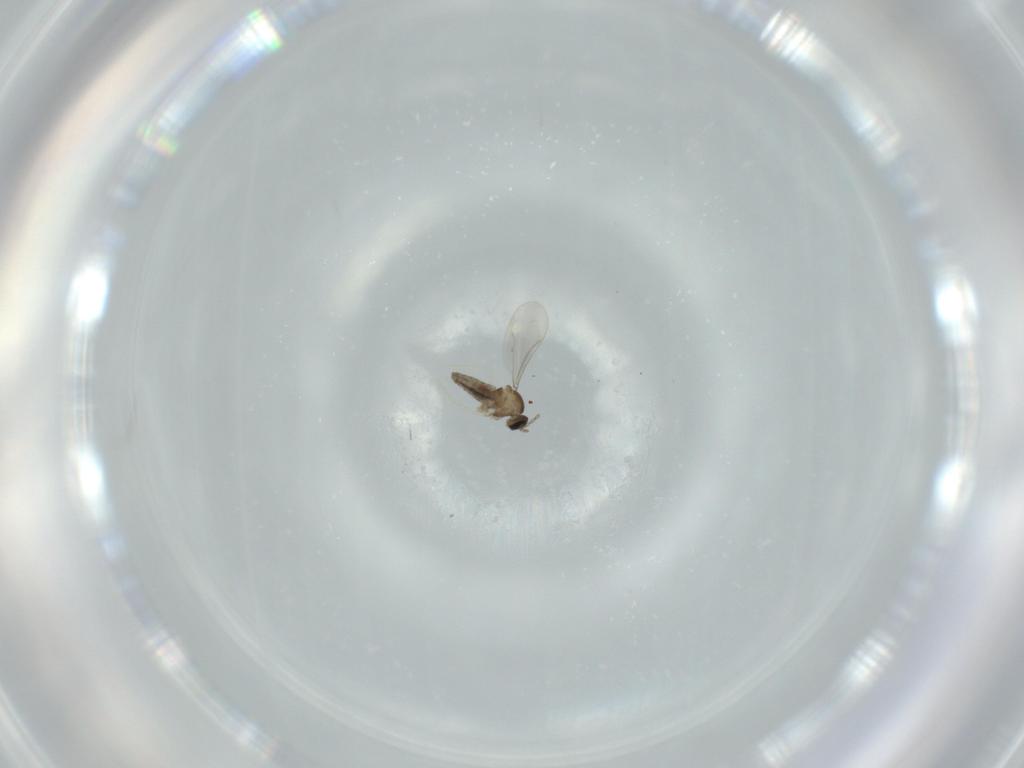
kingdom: Animalia
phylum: Arthropoda
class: Insecta
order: Diptera
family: Cecidomyiidae
